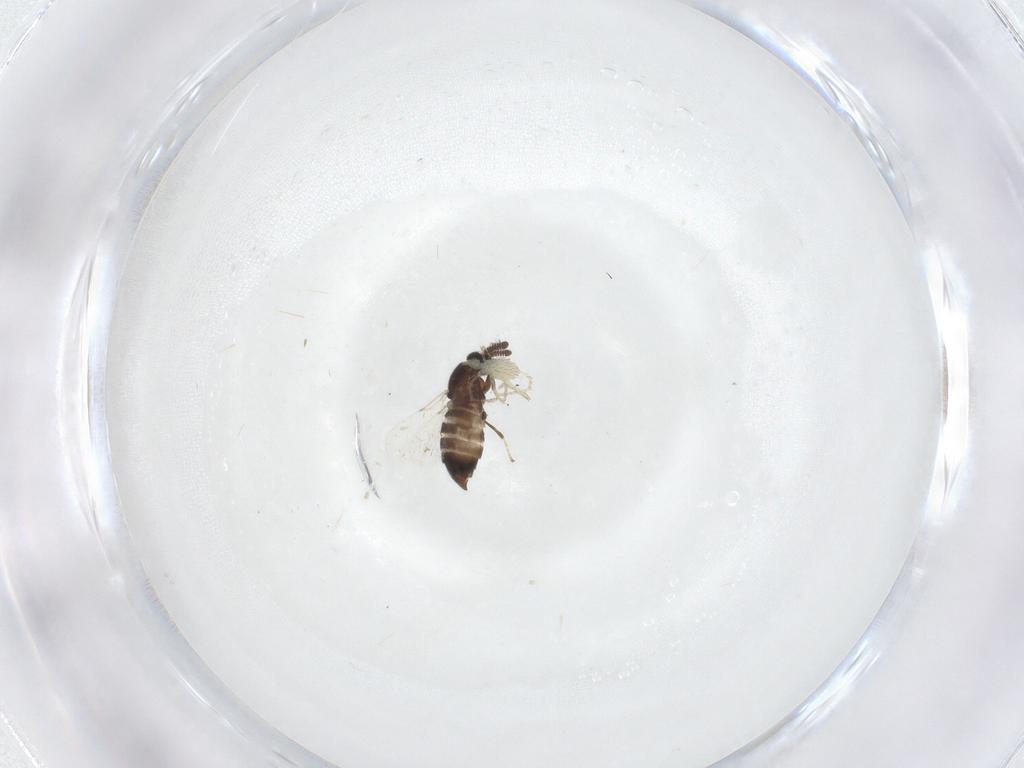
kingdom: Animalia
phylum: Arthropoda
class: Insecta
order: Diptera
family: Scatopsidae
